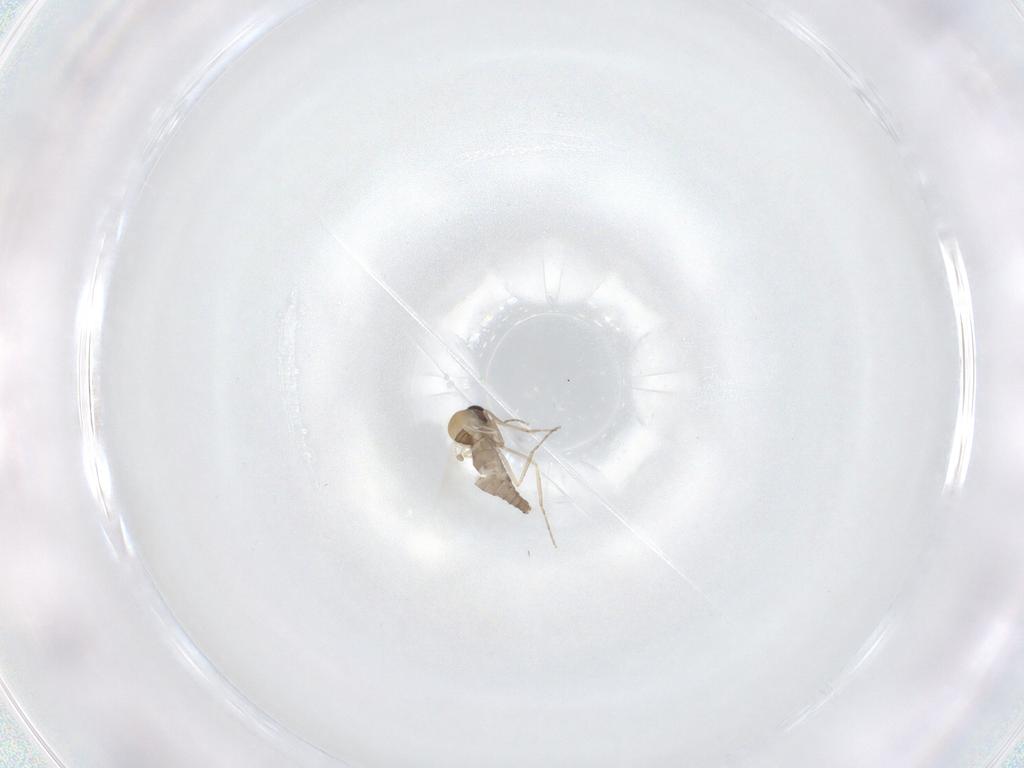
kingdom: Animalia
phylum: Arthropoda
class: Insecta
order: Diptera
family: Ceratopogonidae
